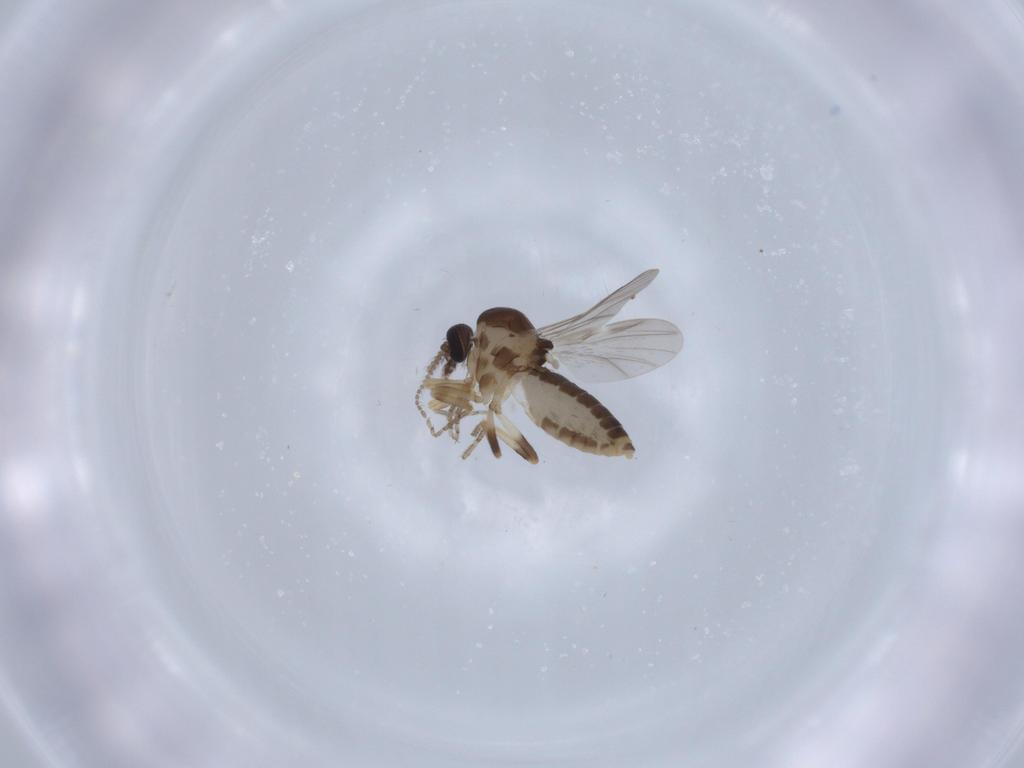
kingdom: Animalia
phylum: Arthropoda
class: Insecta
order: Diptera
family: Ceratopogonidae
